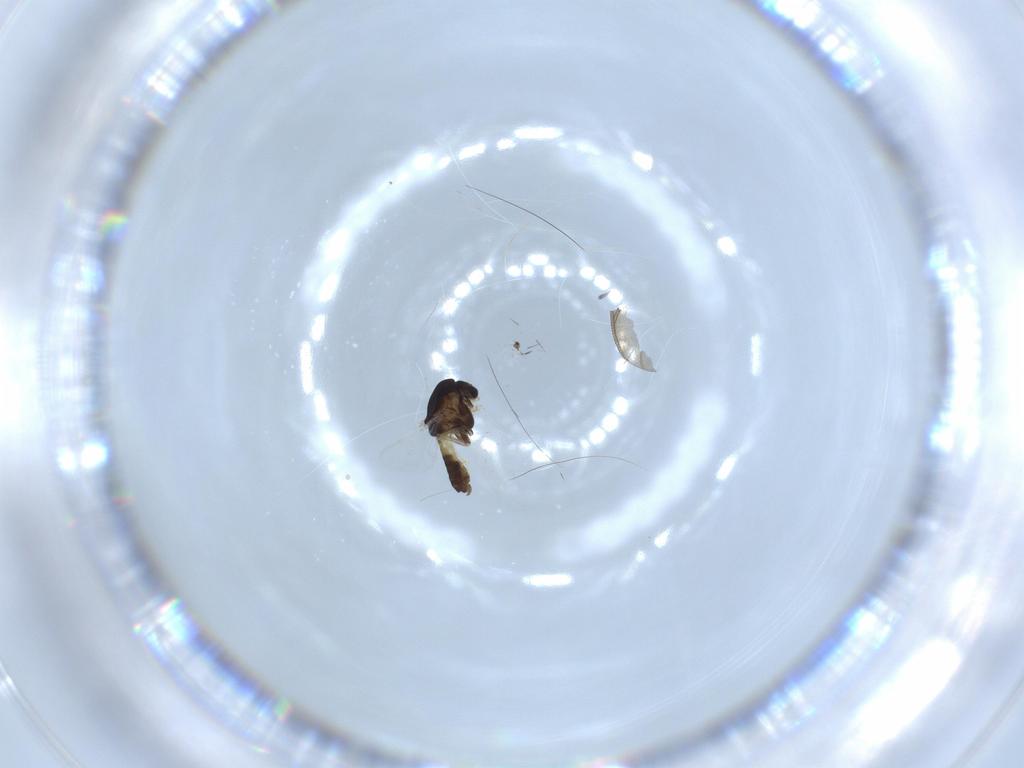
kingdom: Animalia
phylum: Arthropoda
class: Insecta
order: Diptera
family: Chironomidae
